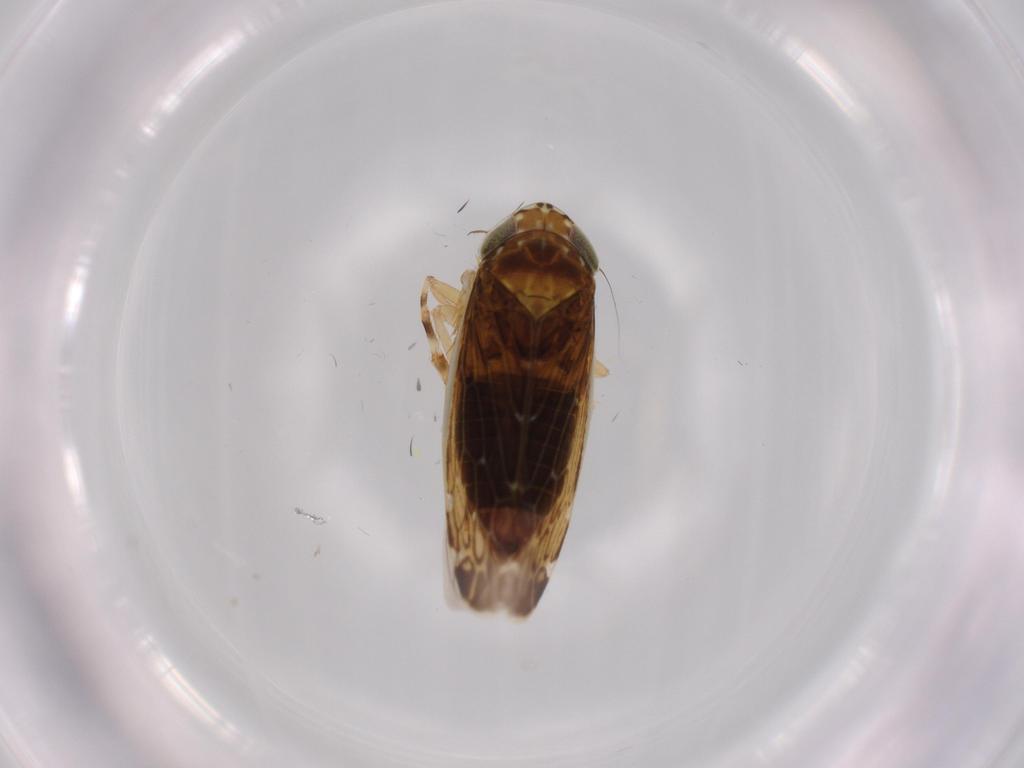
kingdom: Animalia
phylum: Arthropoda
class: Insecta
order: Hemiptera
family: Cicadellidae
